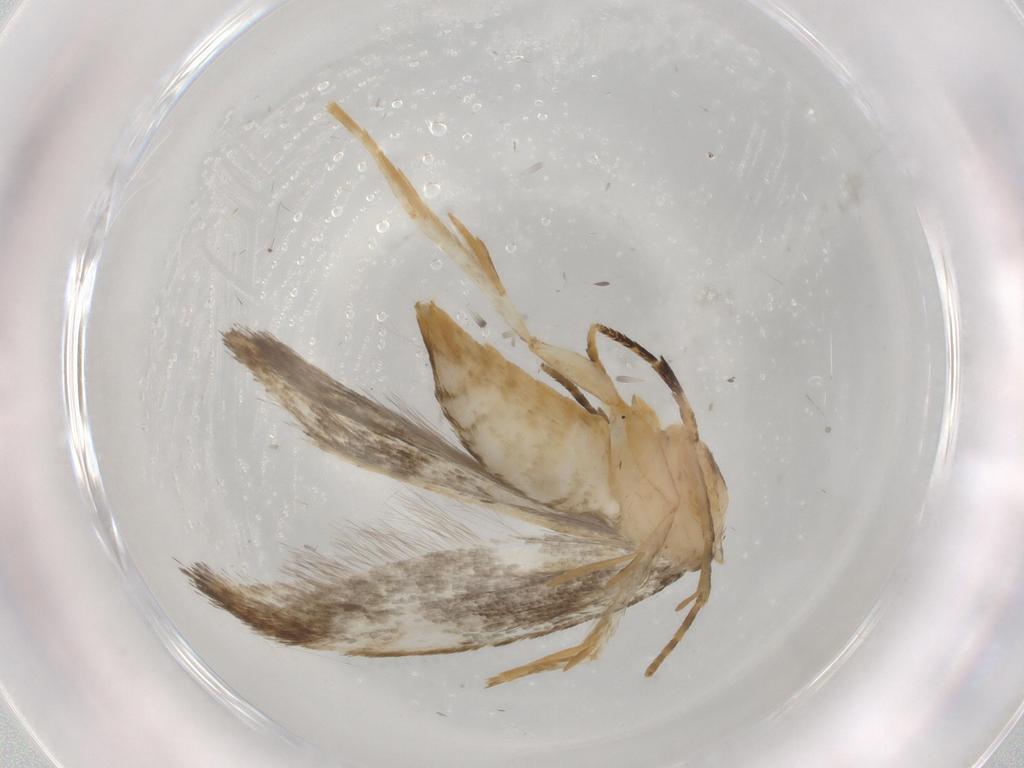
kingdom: Animalia
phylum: Arthropoda
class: Insecta
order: Lepidoptera
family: Tineidae
